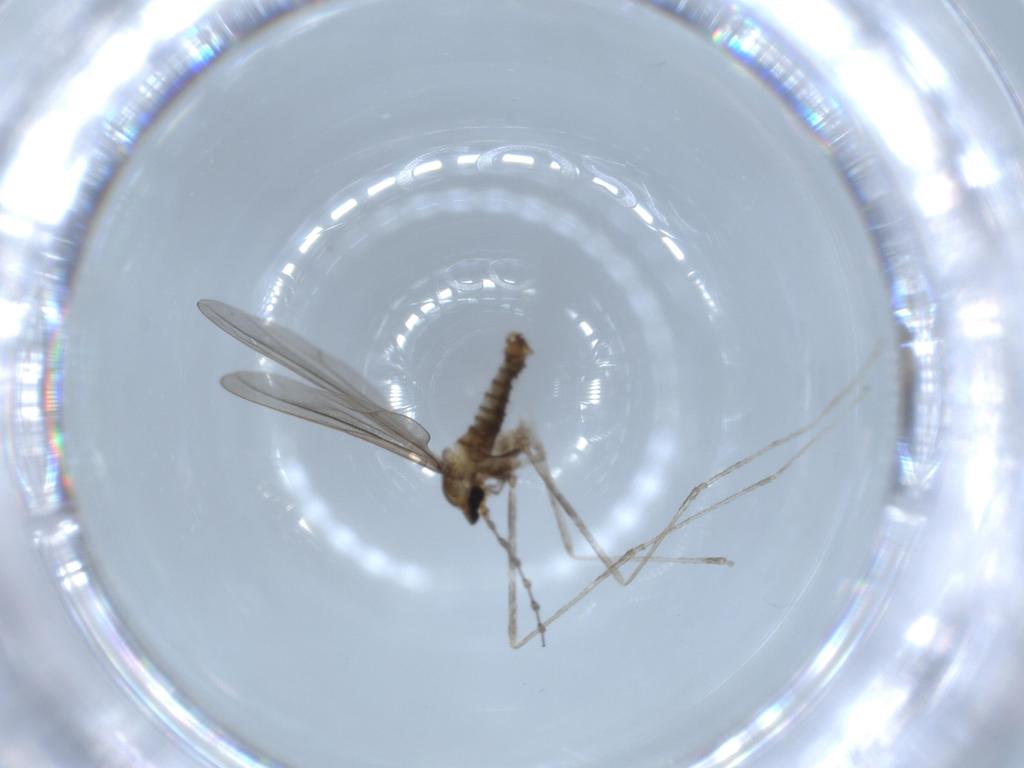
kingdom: Animalia
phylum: Arthropoda
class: Insecta
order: Diptera
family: Cecidomyiidae
